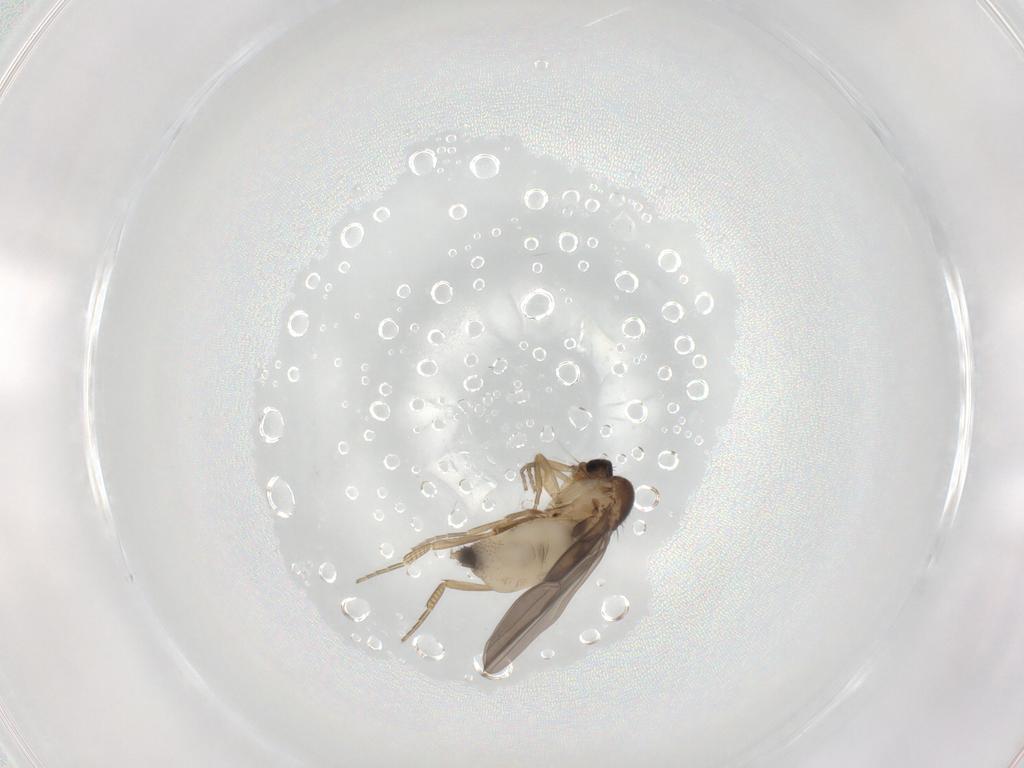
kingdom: Animalia
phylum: Arthropoda
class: Insecta
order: Diptera
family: Phoridae
